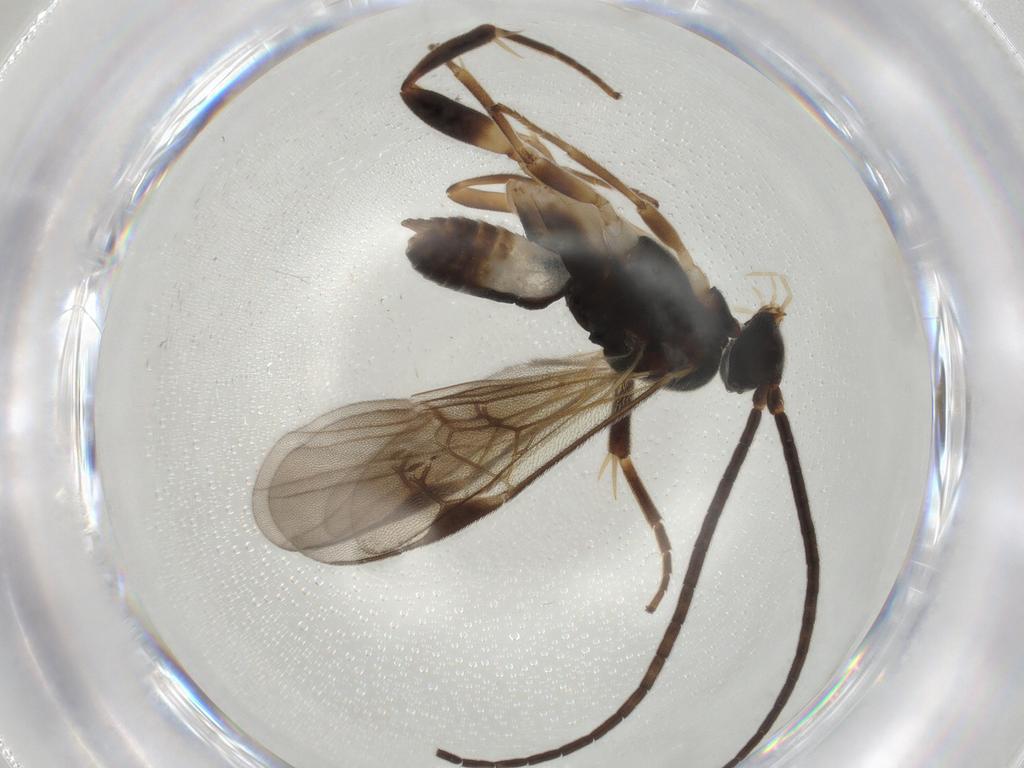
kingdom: Animalia
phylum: Arthropoda
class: Insecta
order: Hymenoptera
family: Braconidae
